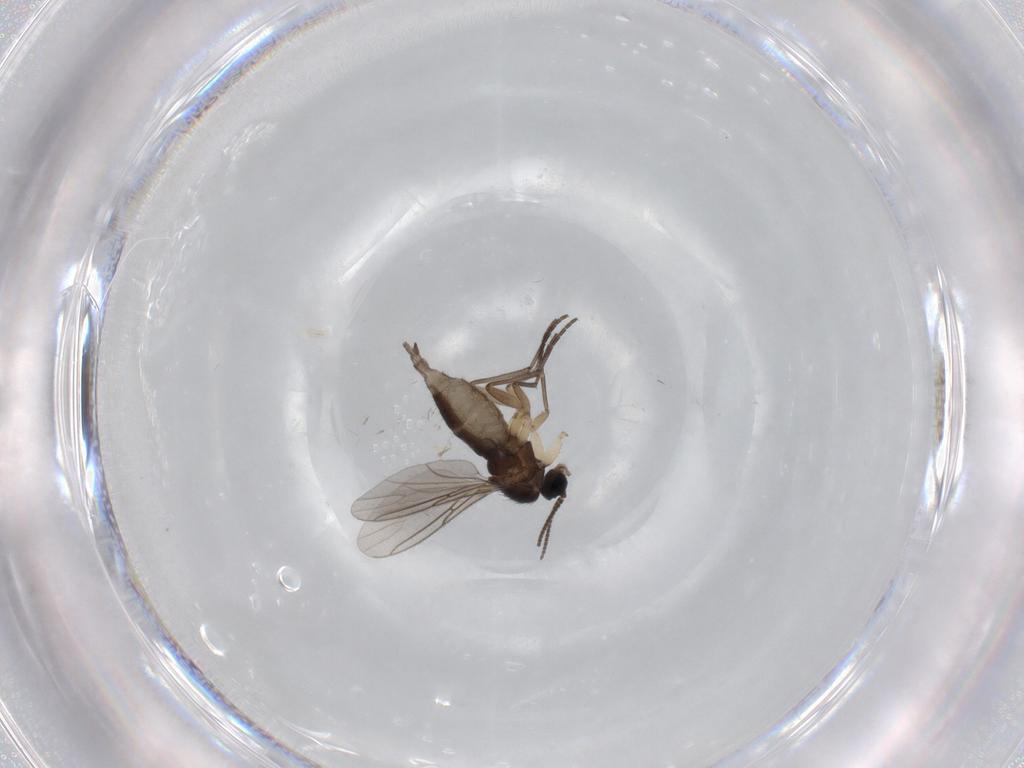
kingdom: Animalia
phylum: Arthropoda
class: Insecta
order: Diptera
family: Sciaridae
